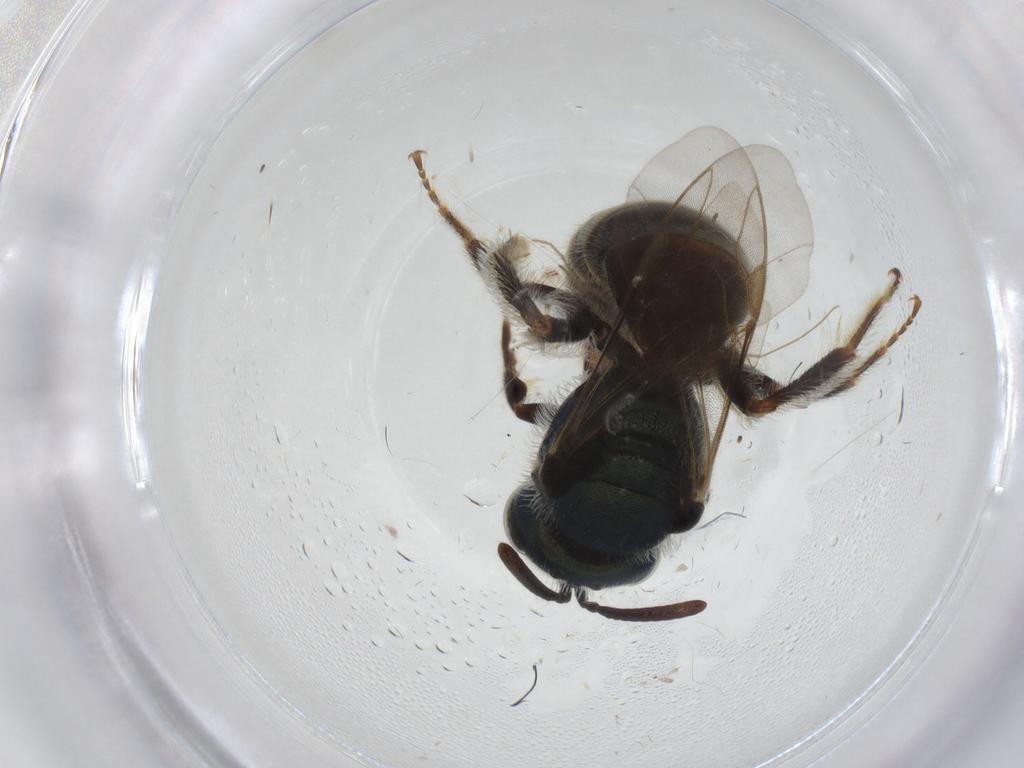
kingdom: Animalia
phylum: Arthropoda
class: Insecta
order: Hymenoptera
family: Halictidae
